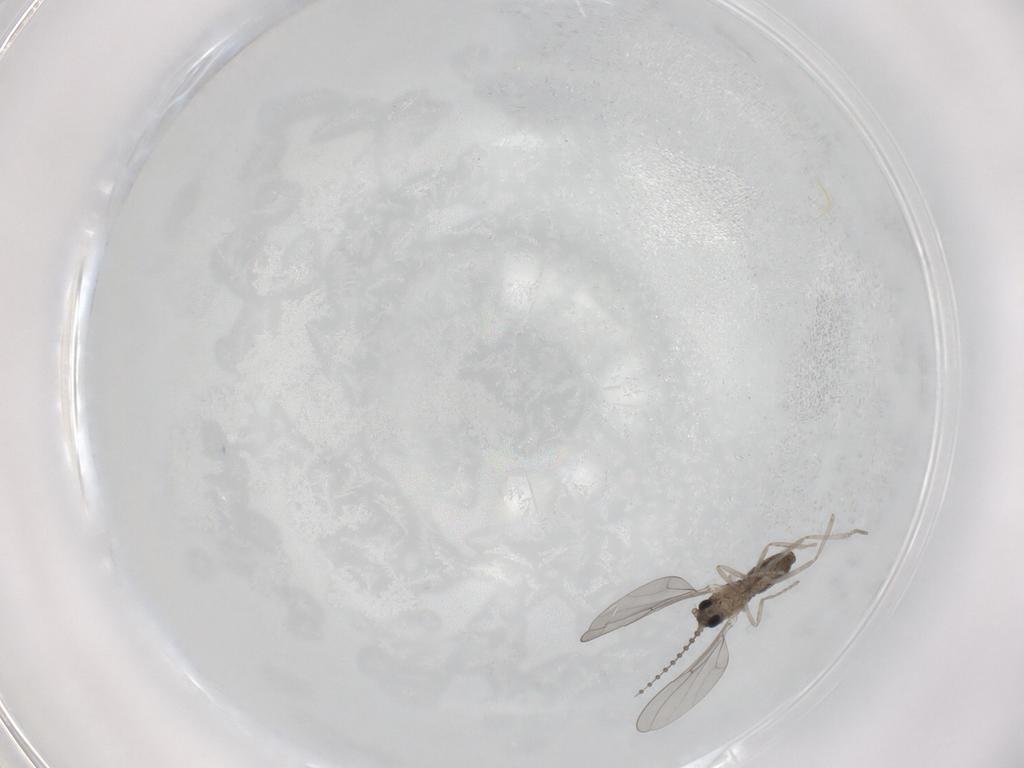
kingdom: Animalia
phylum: Arthropoda
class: Insecta
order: Diptera
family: Cecidomyiidae
